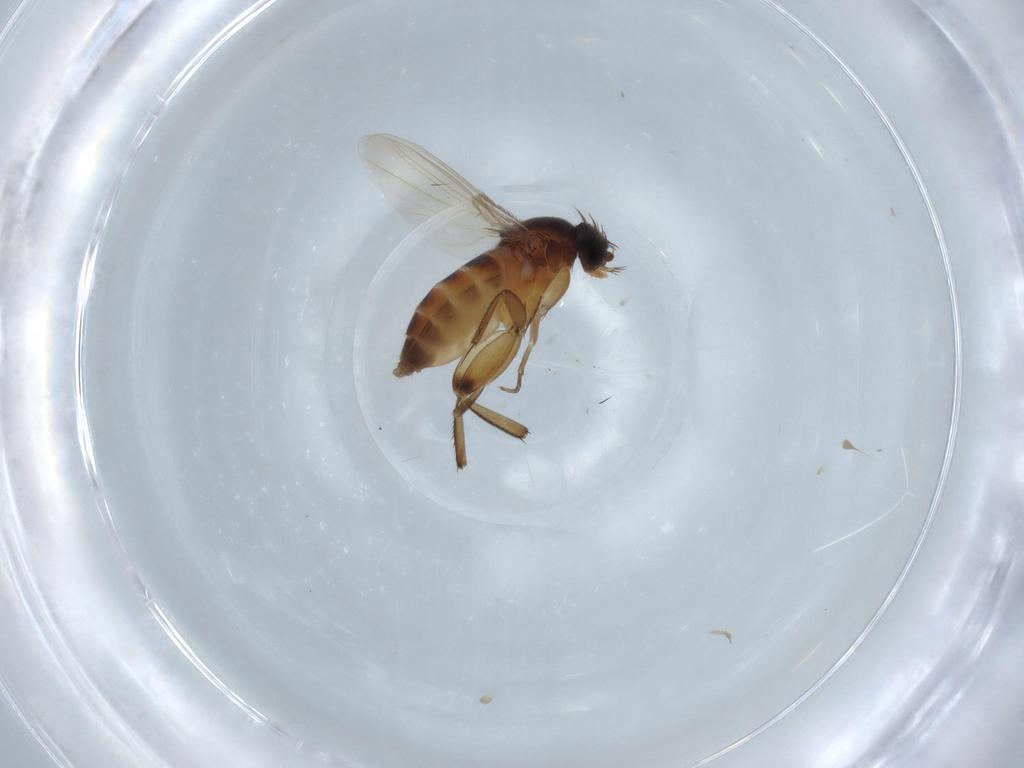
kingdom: Animalia
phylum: Arthropoda
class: Insecta
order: Diptera
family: Phoridae
